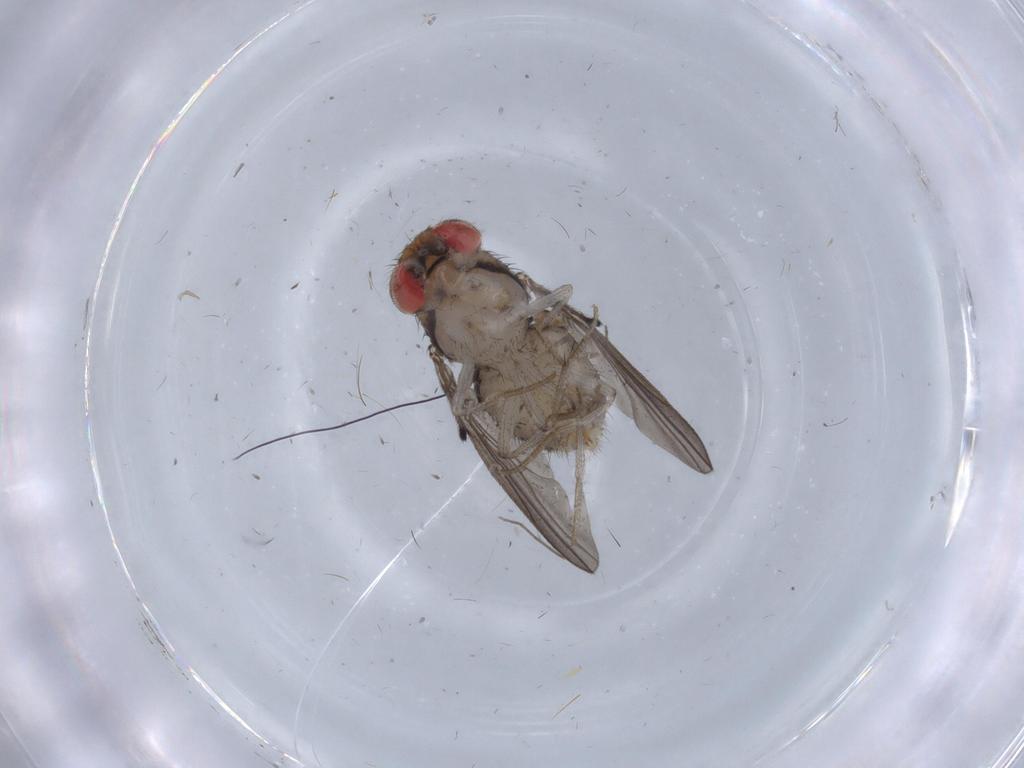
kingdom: Animalia
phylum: Arthropoda
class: Insecta
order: Diptera
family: Drosophilidae
